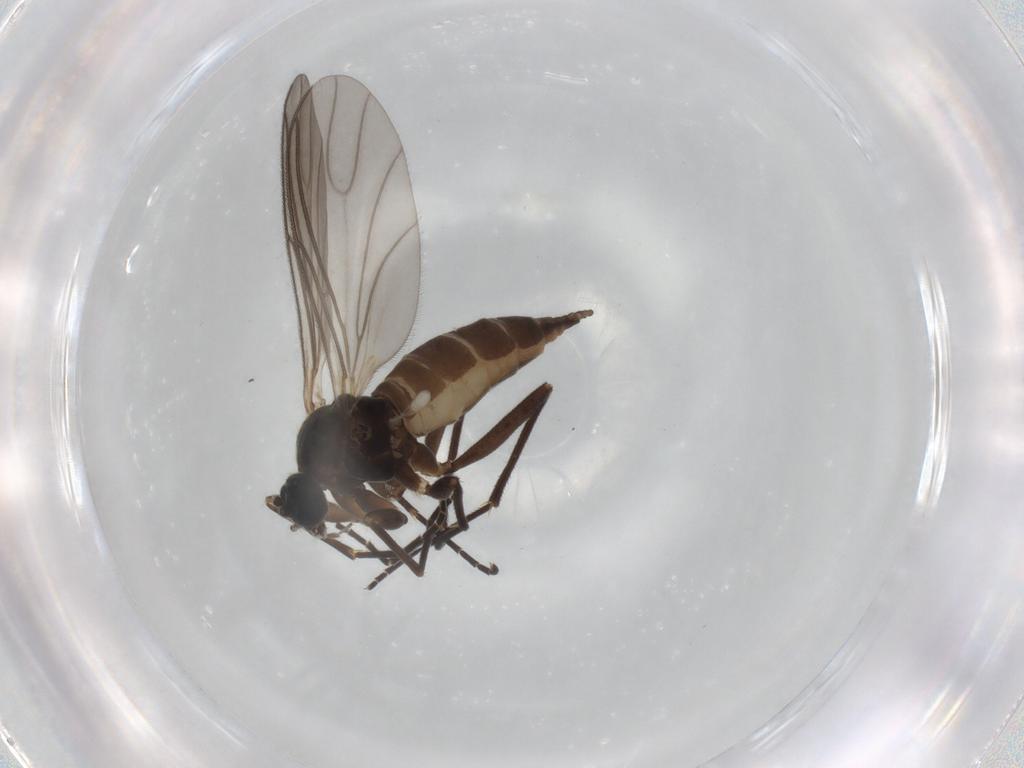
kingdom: Animalia
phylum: Arthropoda
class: Insecta
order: Diptera
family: Sciaridae
